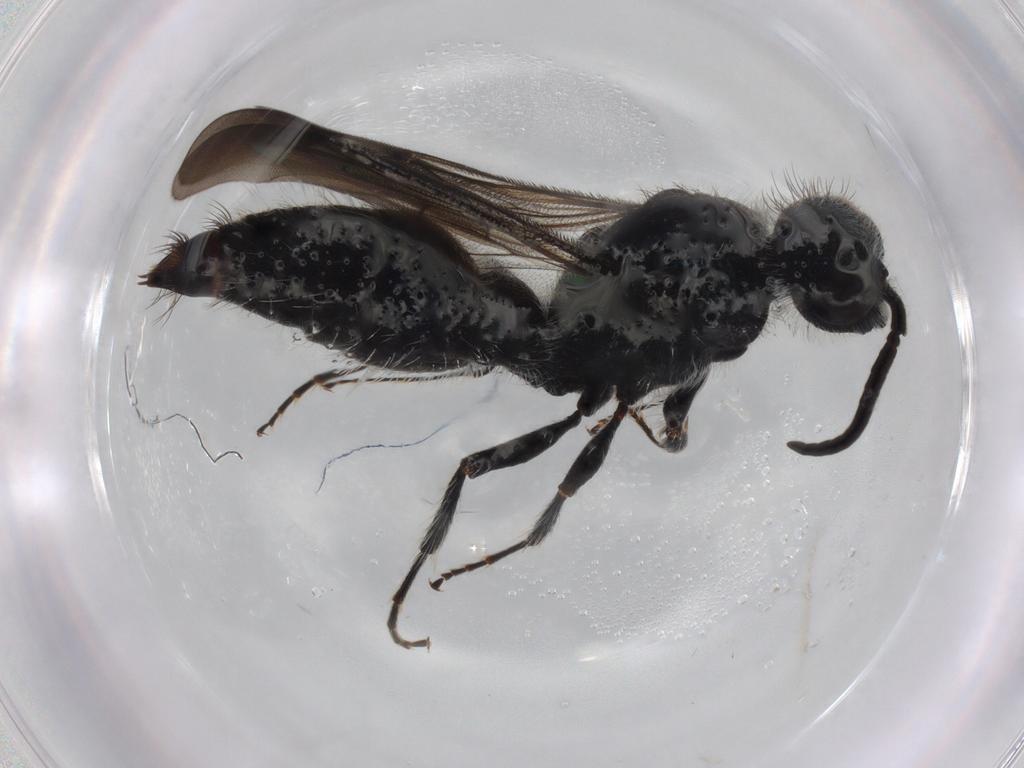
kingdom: Animalia
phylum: Arthropoda
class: Insecta
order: Hymenoptera
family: Mutillidae
